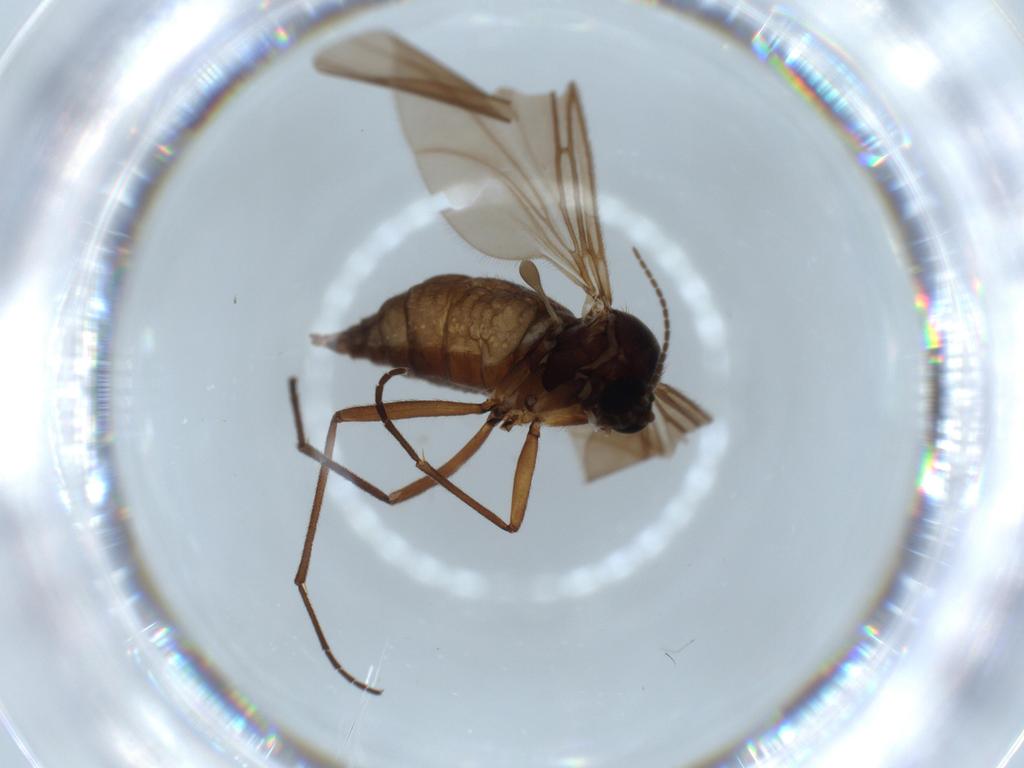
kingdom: Animalia
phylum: Arthropoda
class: Insecta
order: Diptera
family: Sciaridae
